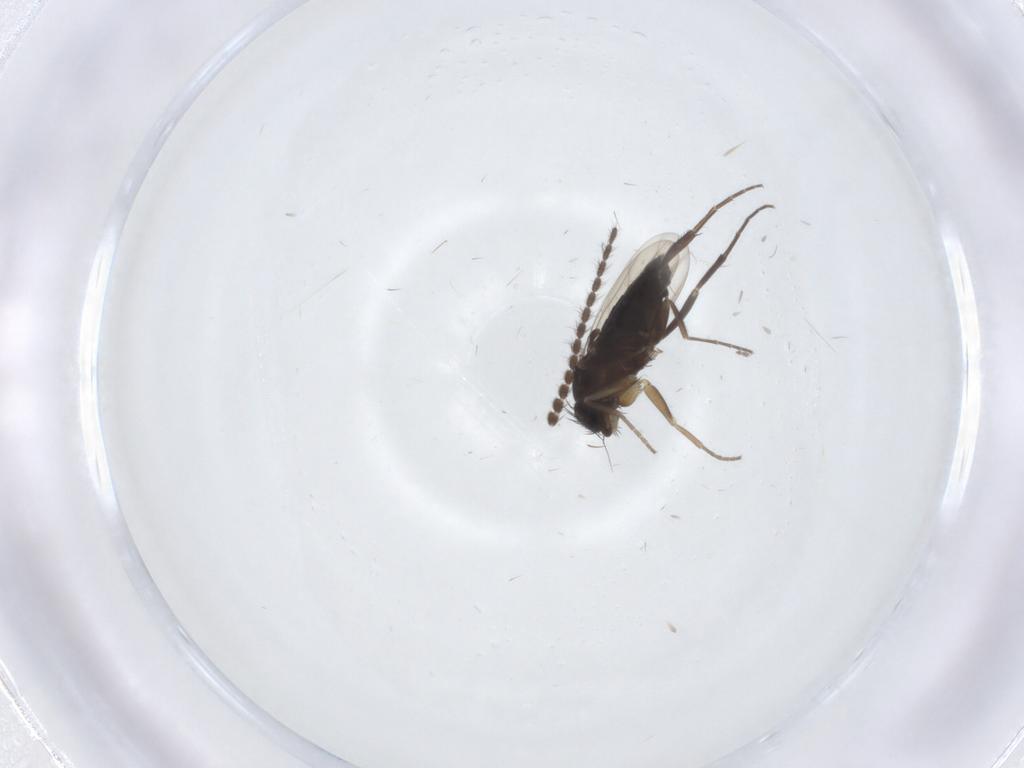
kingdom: Animalia
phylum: Arthropoda
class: Insecta
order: Diptera
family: Limoniidae
